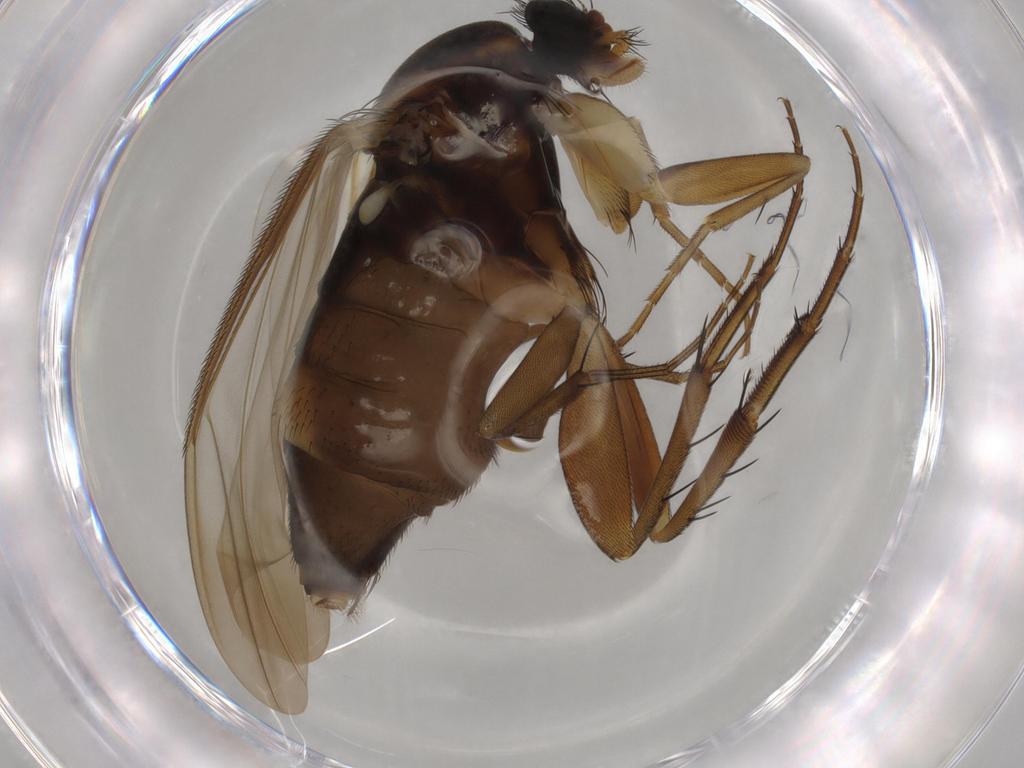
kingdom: Animalia
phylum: Arthropoda
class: Insecta
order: Diptera
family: Phoridae
